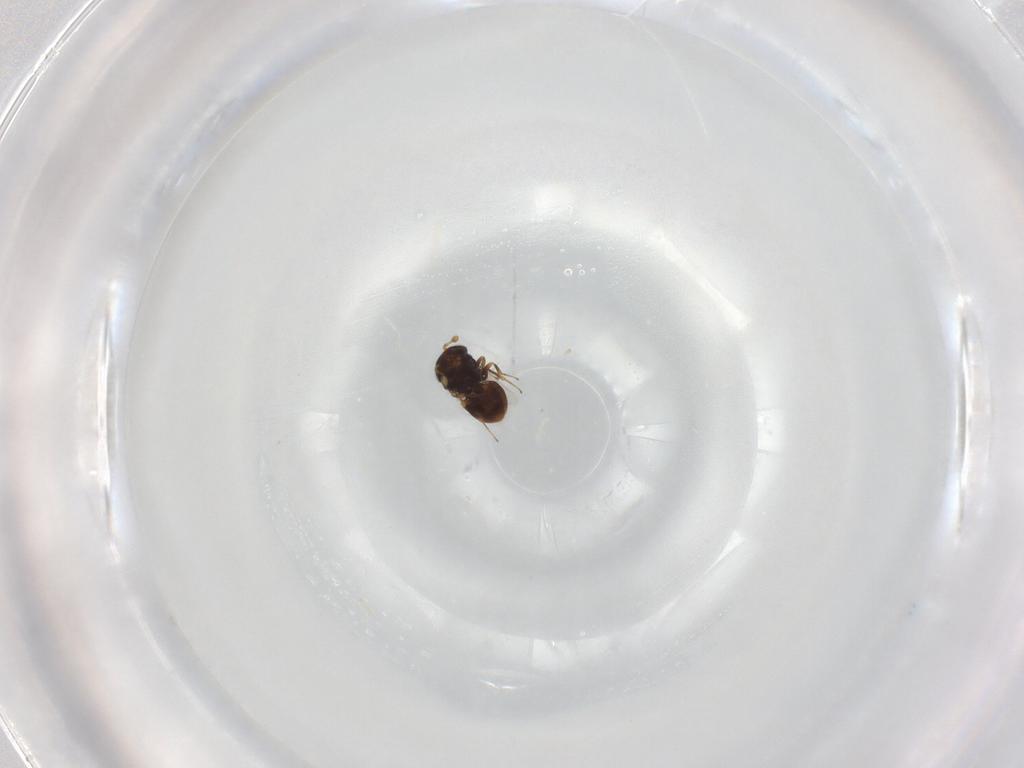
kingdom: Animalia
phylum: Arthropoda
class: Insecta
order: Hymenoptera
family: Scelionidae
